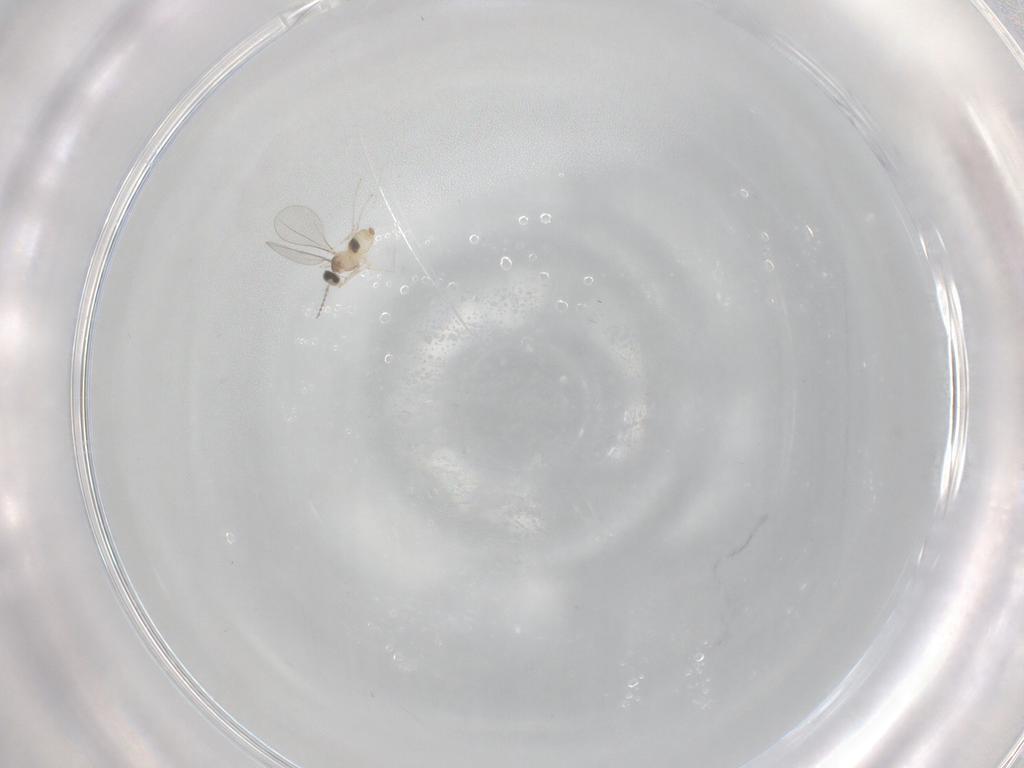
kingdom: Animalia
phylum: Arthropoda
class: Insecta
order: Diptera
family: Cecidomyiidae
